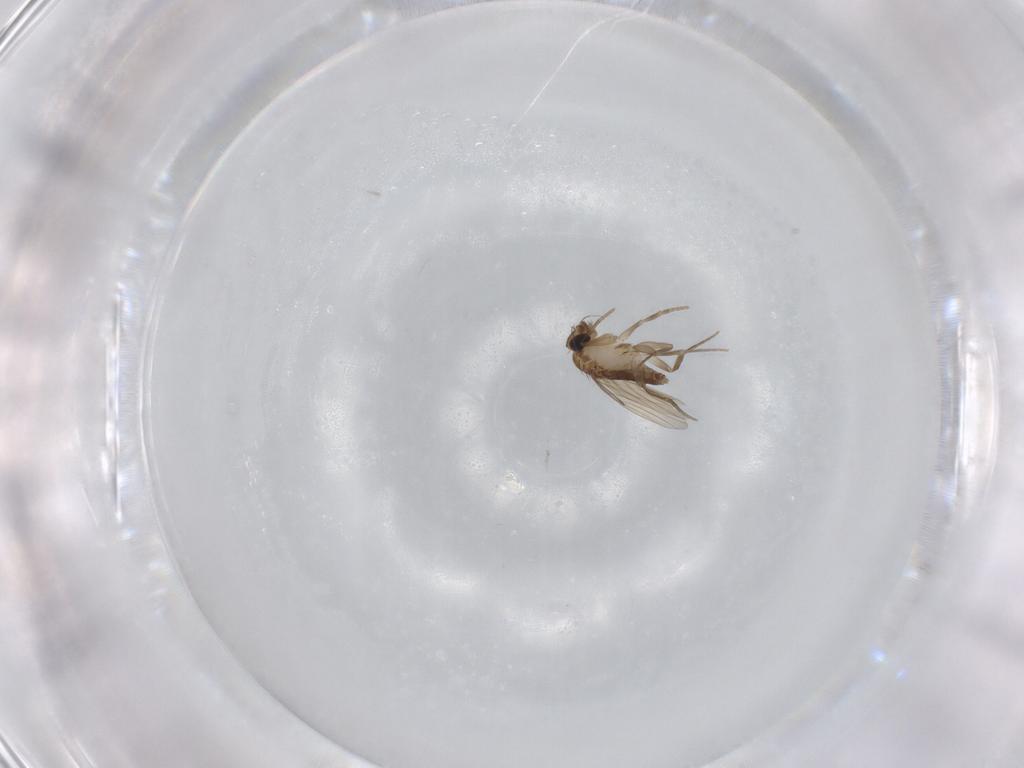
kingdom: Animalia
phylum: Arthropoda
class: Insecta
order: Diptera
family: Phoridae
